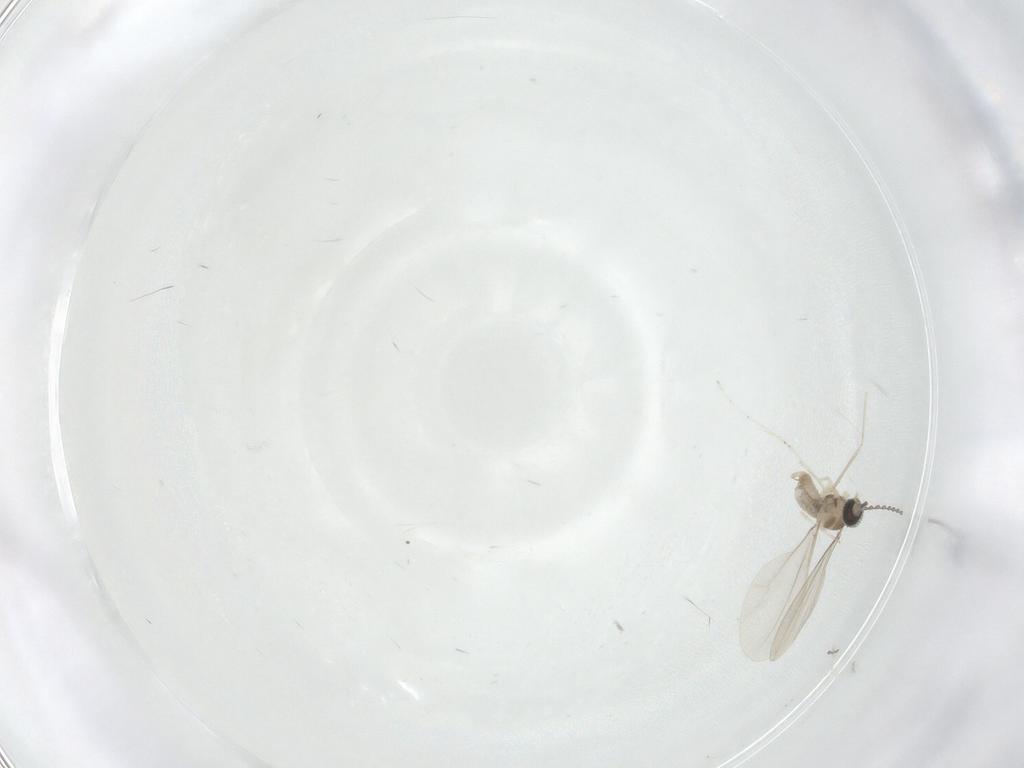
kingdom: Animalia
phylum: Arthropoda
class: Insecta
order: Diptera
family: Cecidomyiidae
